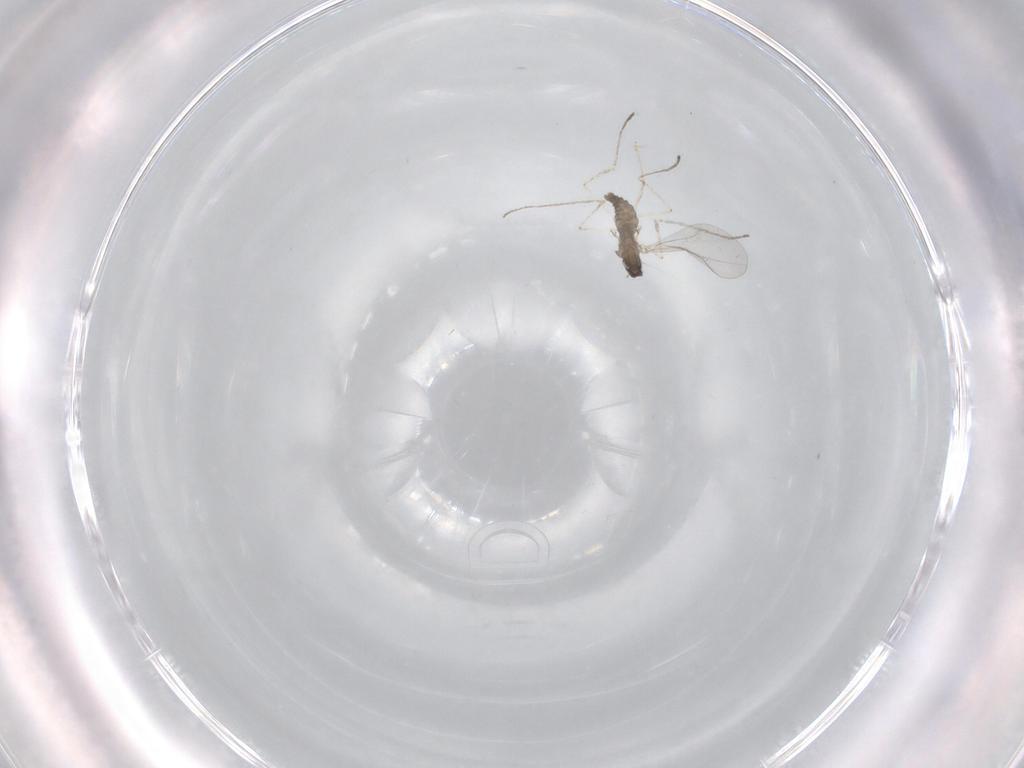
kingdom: Animalia
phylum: Arthropoda
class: Insecta
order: Diptera
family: Cecidomyiidae
